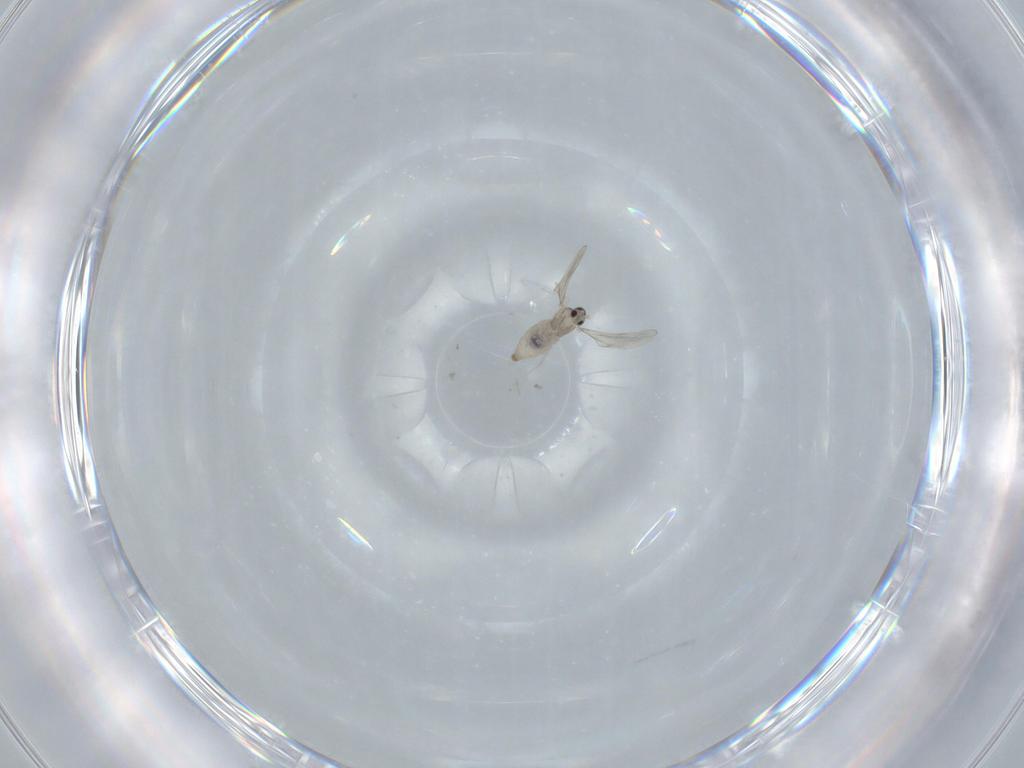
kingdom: Animalia
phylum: Arthropoda
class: Insecta
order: Diptera
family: Cecidomyiidae
